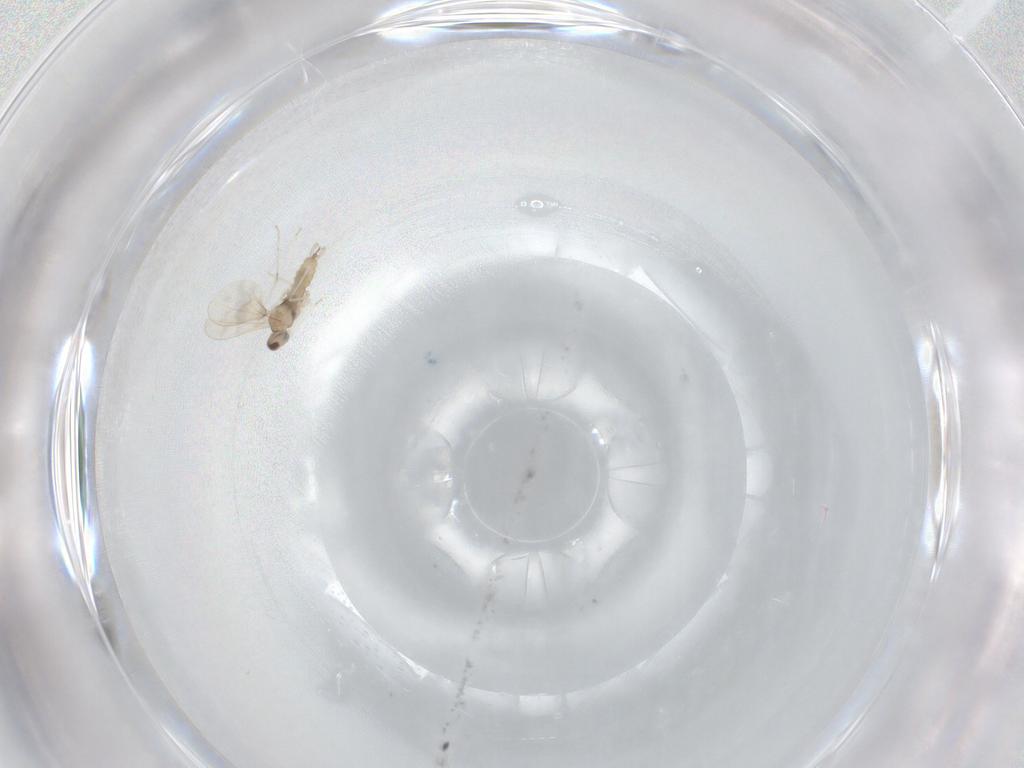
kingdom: Animalia
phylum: Arthropoda
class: Insecta
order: Diptera
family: Cecidomyiidae
